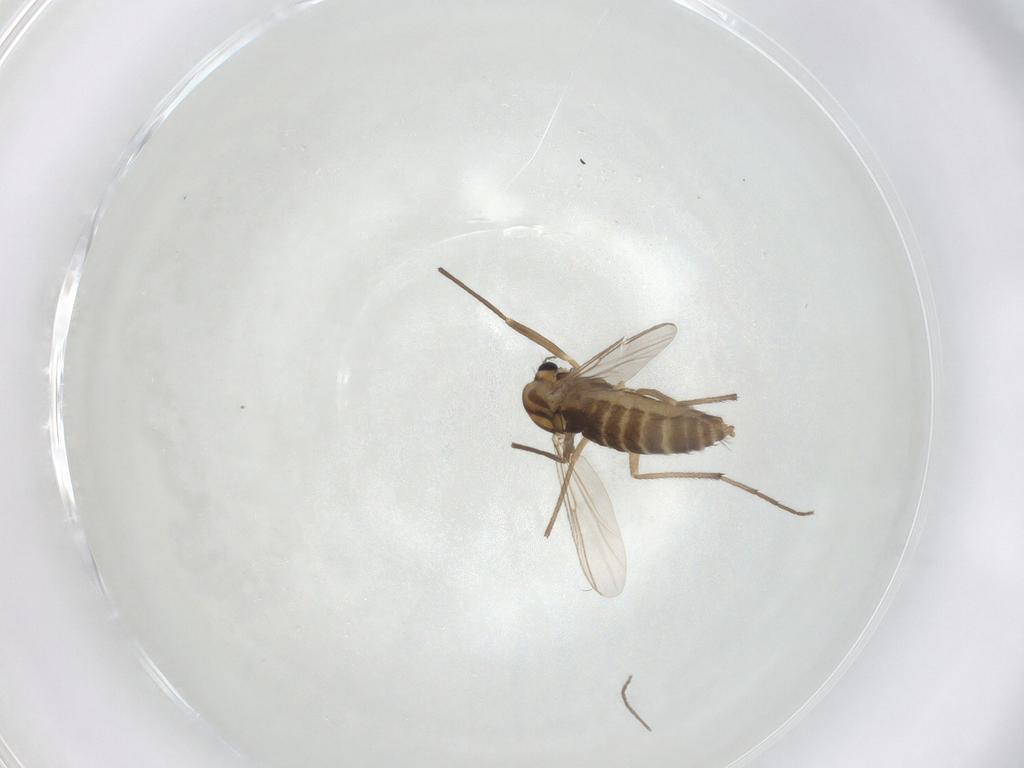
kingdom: Animalia
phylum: Arthropoda
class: Insecta
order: Diptera
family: Chironomidae
